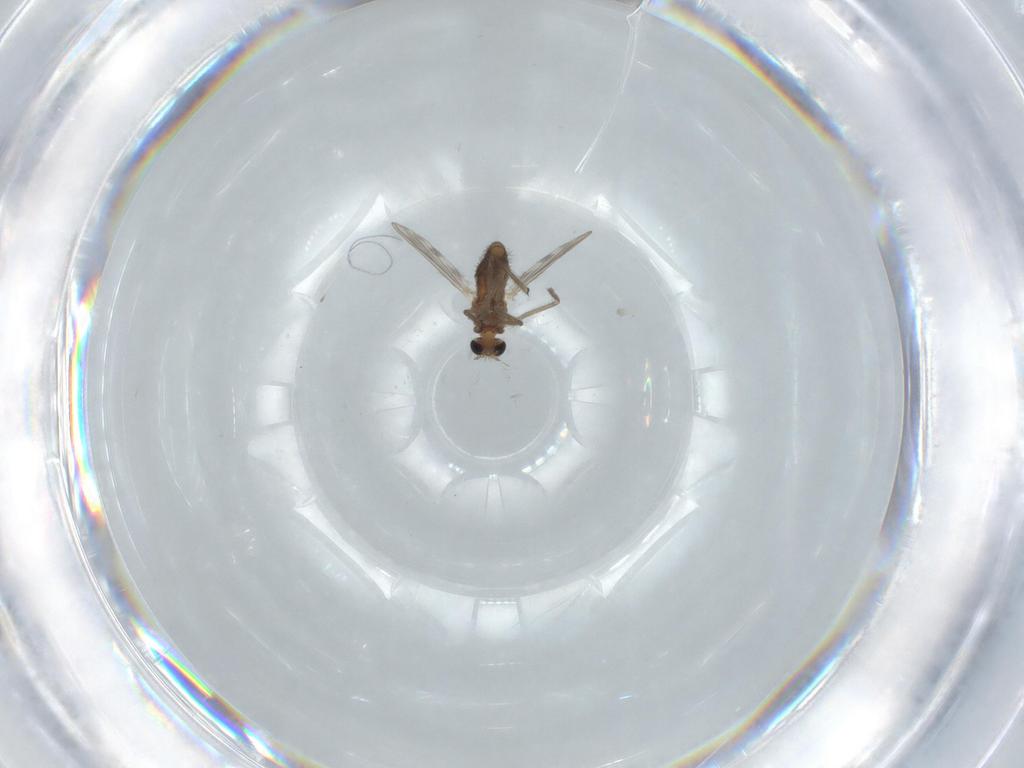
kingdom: Animalia
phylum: Arthropoda
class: Insecta
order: Diptera
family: Chironomidae
